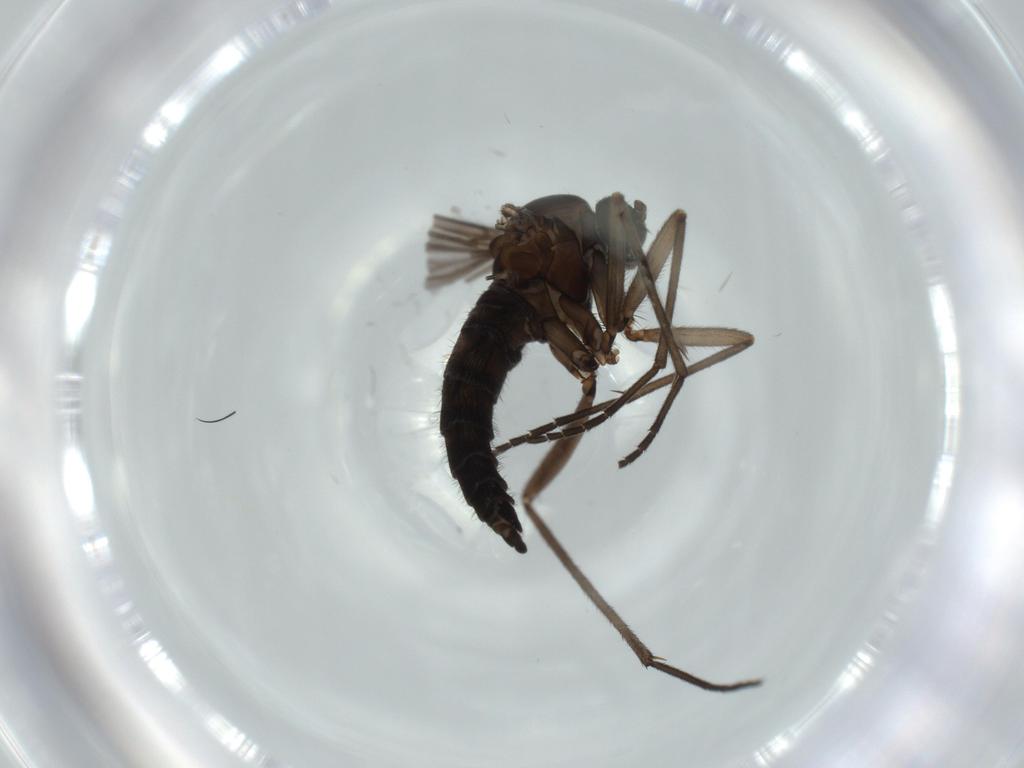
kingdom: Animalia
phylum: Arthropoda
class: Insecta
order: Diptera
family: Sciaridae
